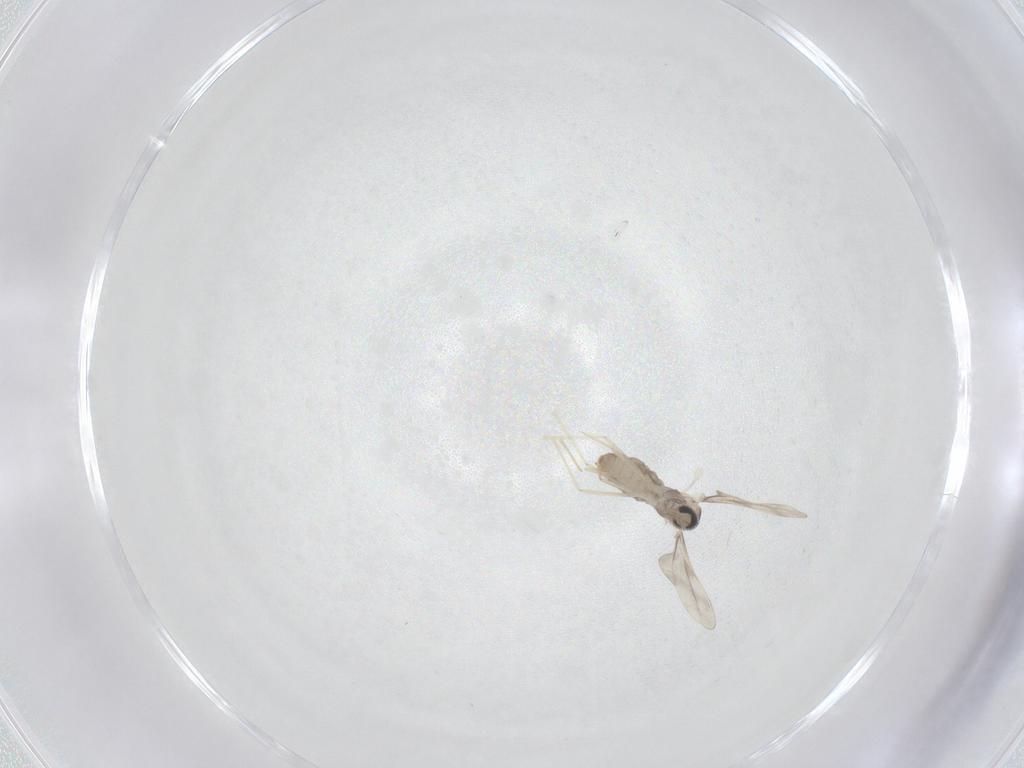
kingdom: Animalia
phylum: Arthropoda
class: Insecta
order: Diptera
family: Cecidomyiidae
